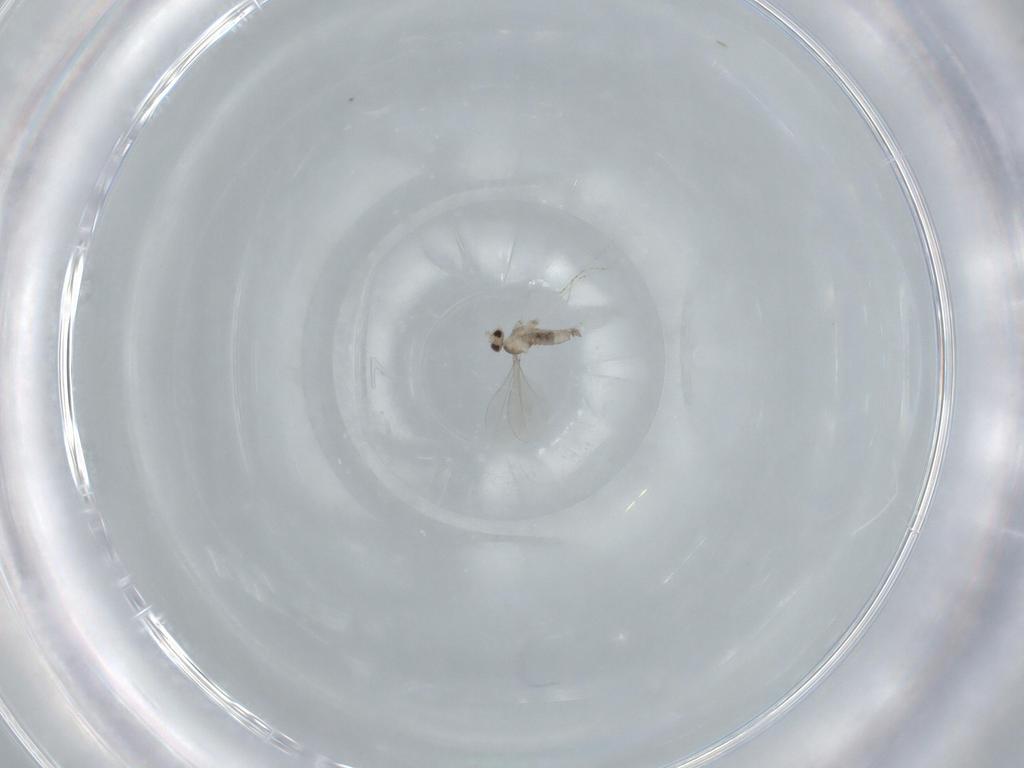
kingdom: Animalia
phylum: Arthropoda
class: Insecta
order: Diptera
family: Cecidomyiidae
